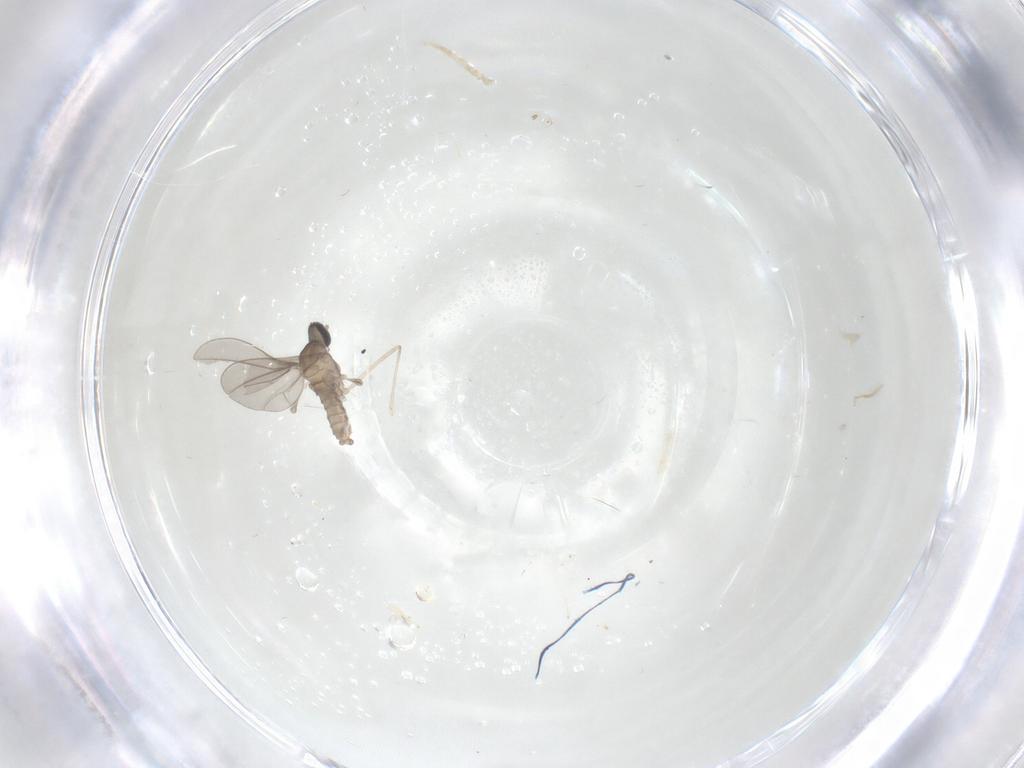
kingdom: Animalia
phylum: Arthropoda
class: Insecta
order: Diptera
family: Cecidomyiidae
